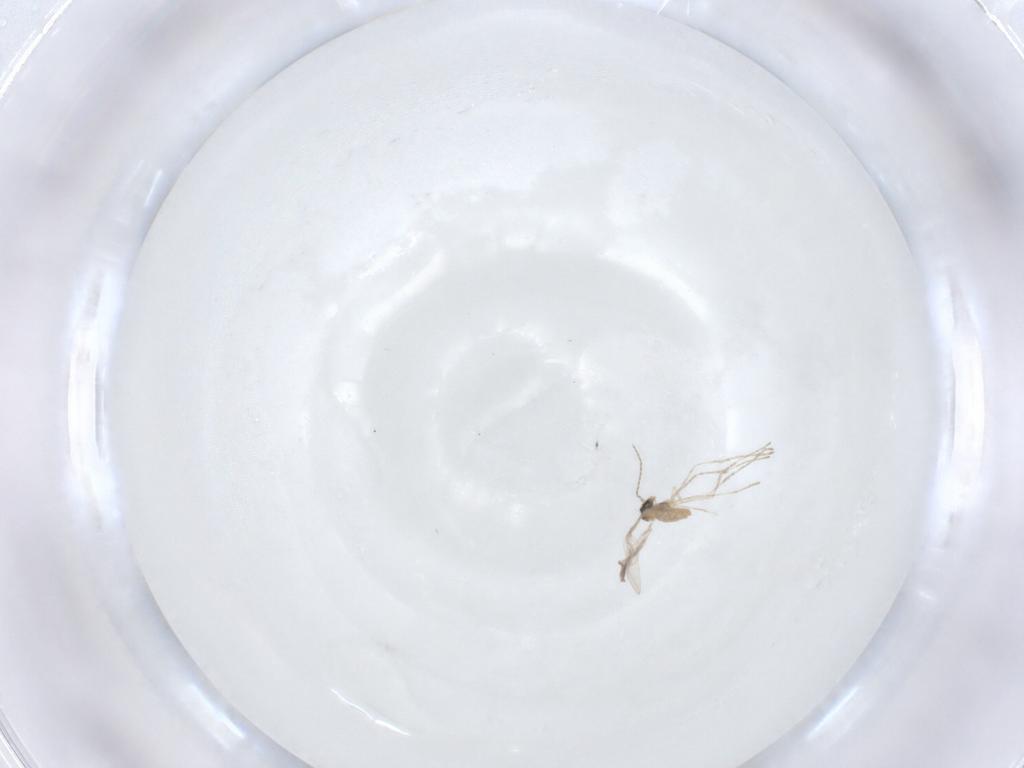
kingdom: Animalia
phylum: Arthropoda
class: Insecta
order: Diptera
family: Cecidomyiidae
